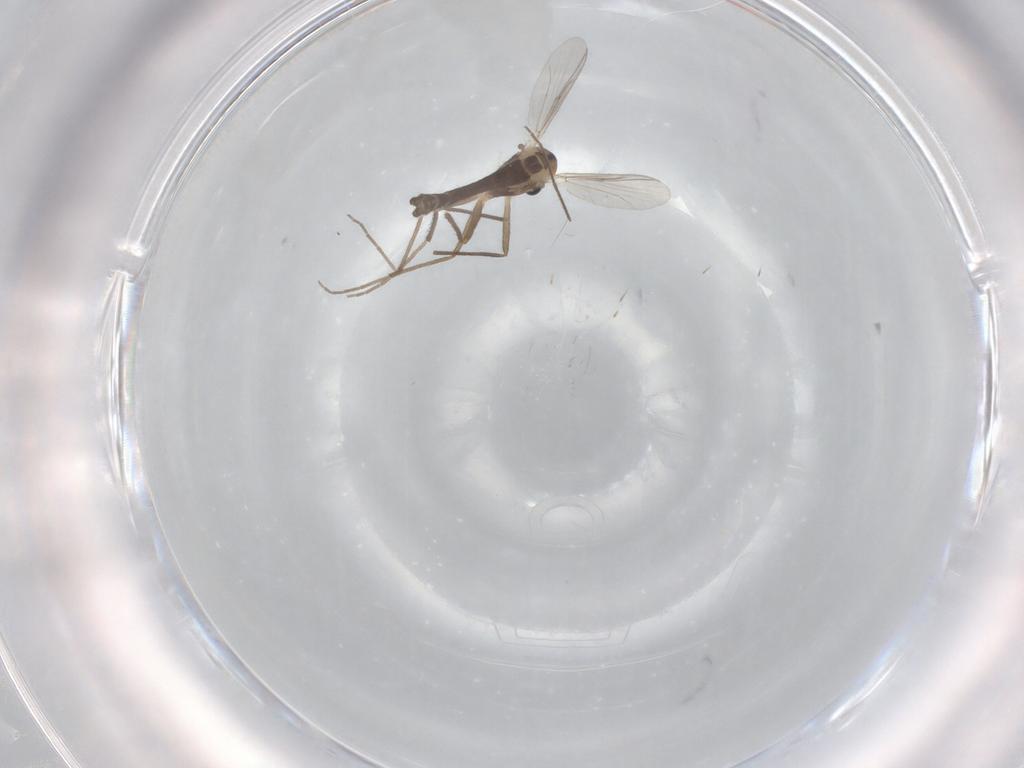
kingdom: Animalia
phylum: Arthropoda
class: Insecta
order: Diptera
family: Chironomidae
